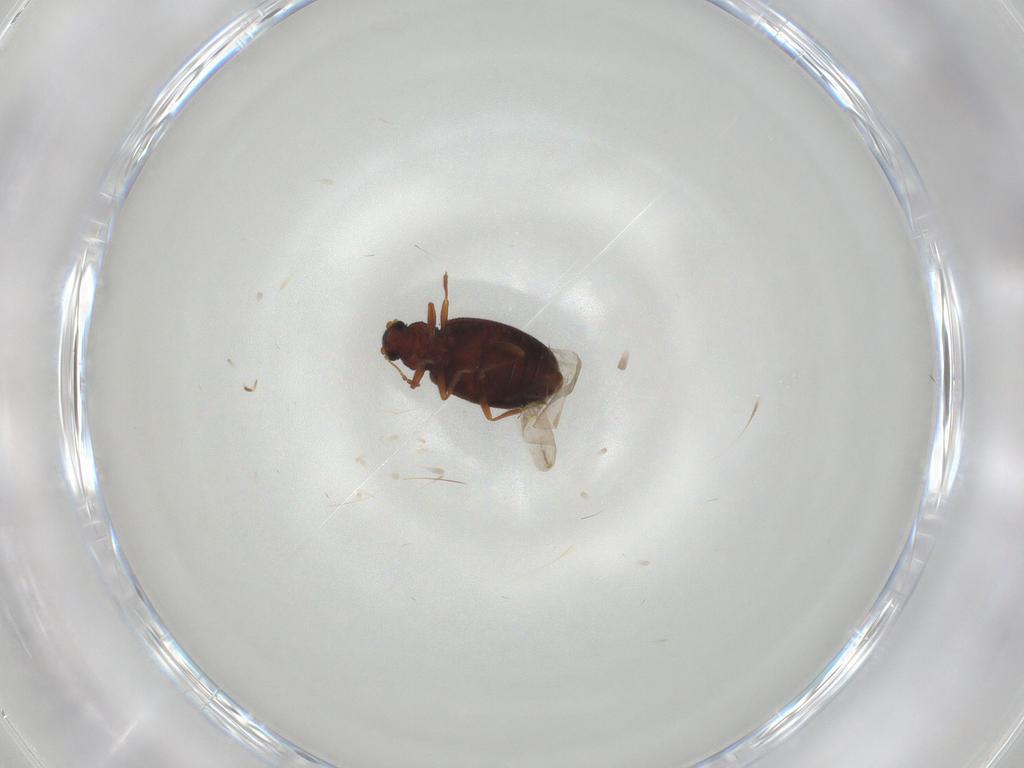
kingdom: Animalia
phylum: Arthropoda
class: Insecta
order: Coleoptera
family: Latridiidae
